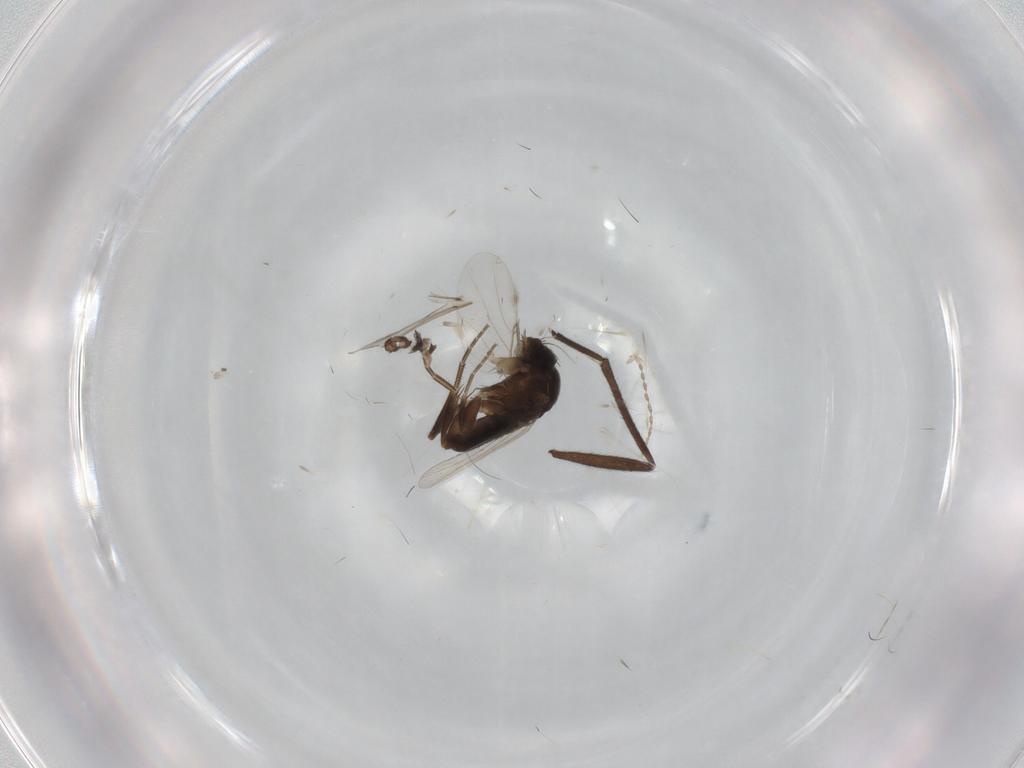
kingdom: Animalia
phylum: Arthropoda
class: Insecta
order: Diptera
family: Phoridae
